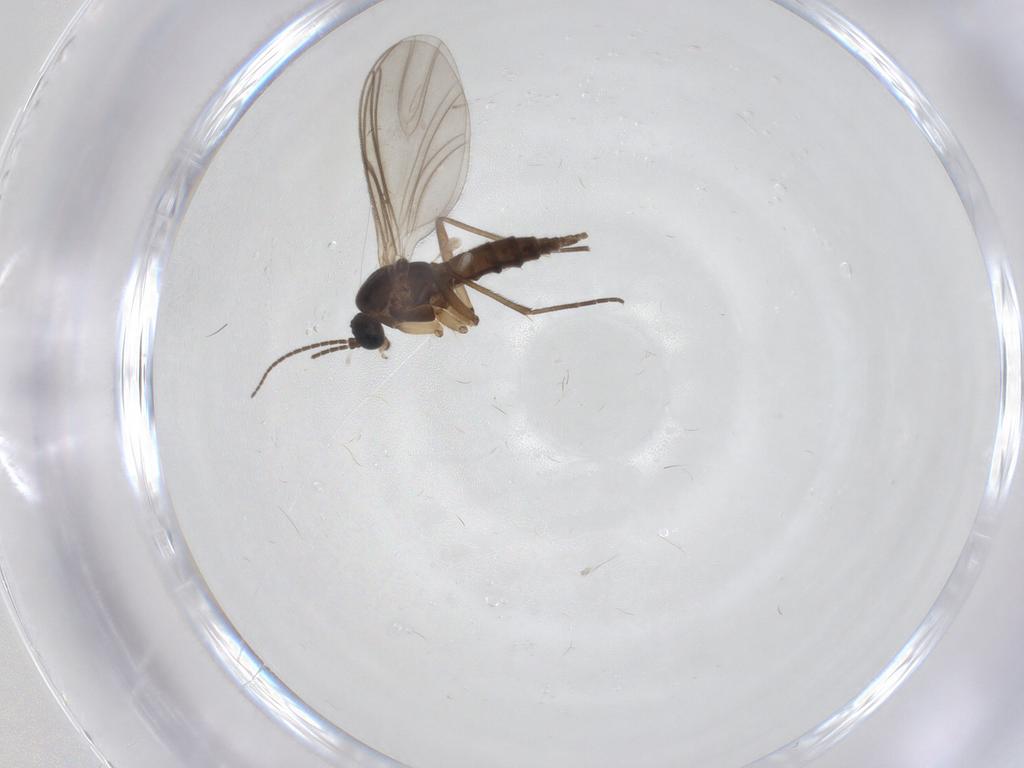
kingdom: Animalia
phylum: Arthropoda
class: Insecta
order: Diptera
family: Sciaridae
